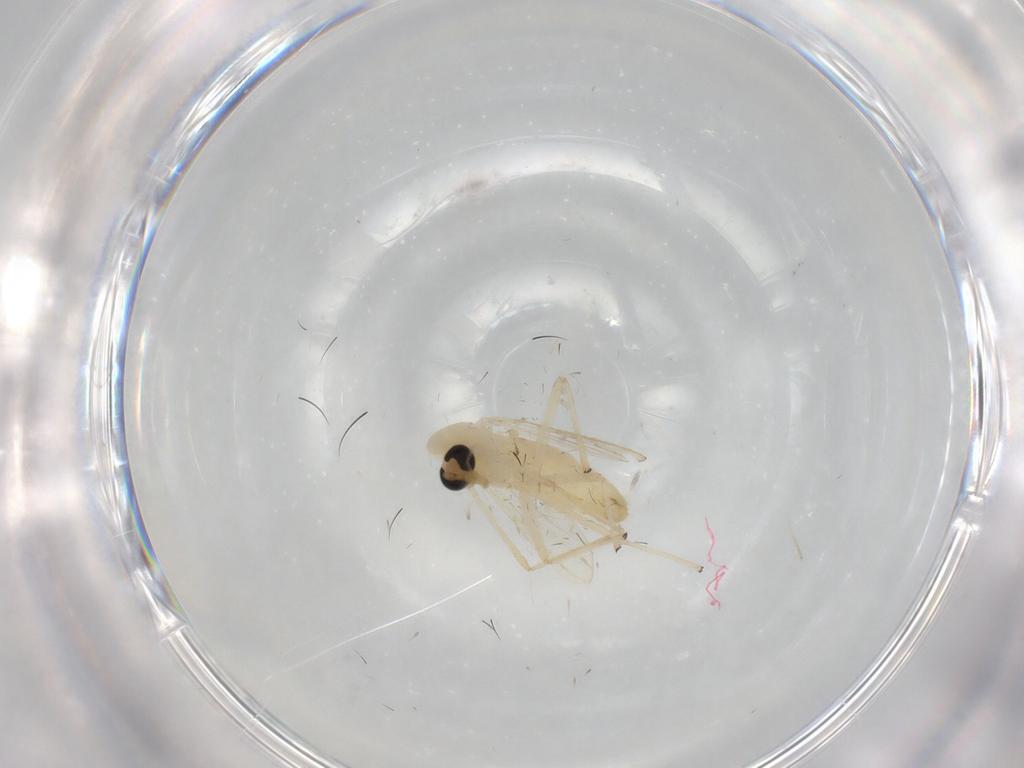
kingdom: Animalia
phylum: Arthropoda
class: Insecta
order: Diptera
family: Chironomidae
